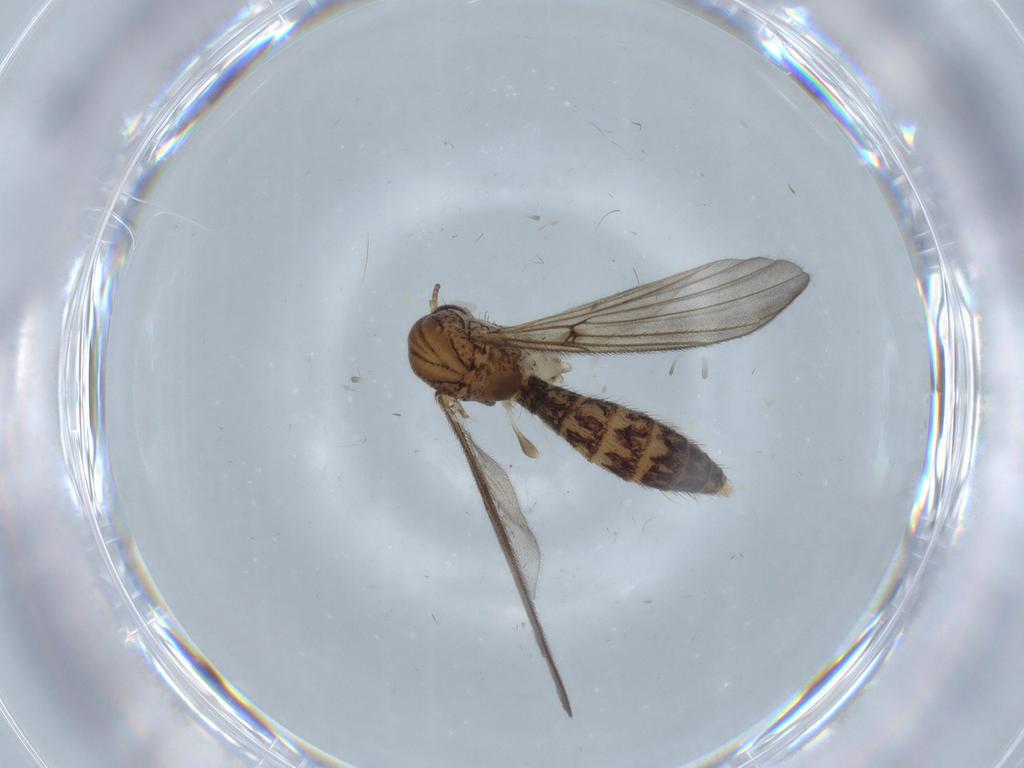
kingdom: Animalia
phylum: Arthropoda
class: Insecta
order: Diptera
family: Mycetophilidae
